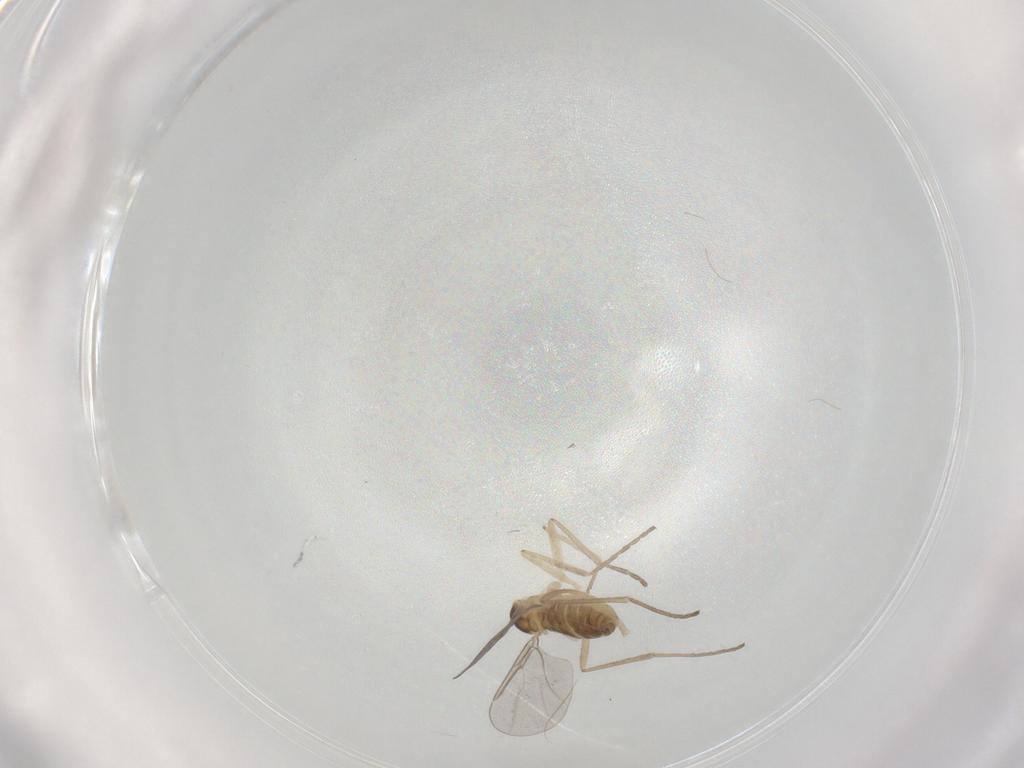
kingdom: Animalia
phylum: Arthropoda
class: Insecta
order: Diptera
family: Cecidomyiidae
